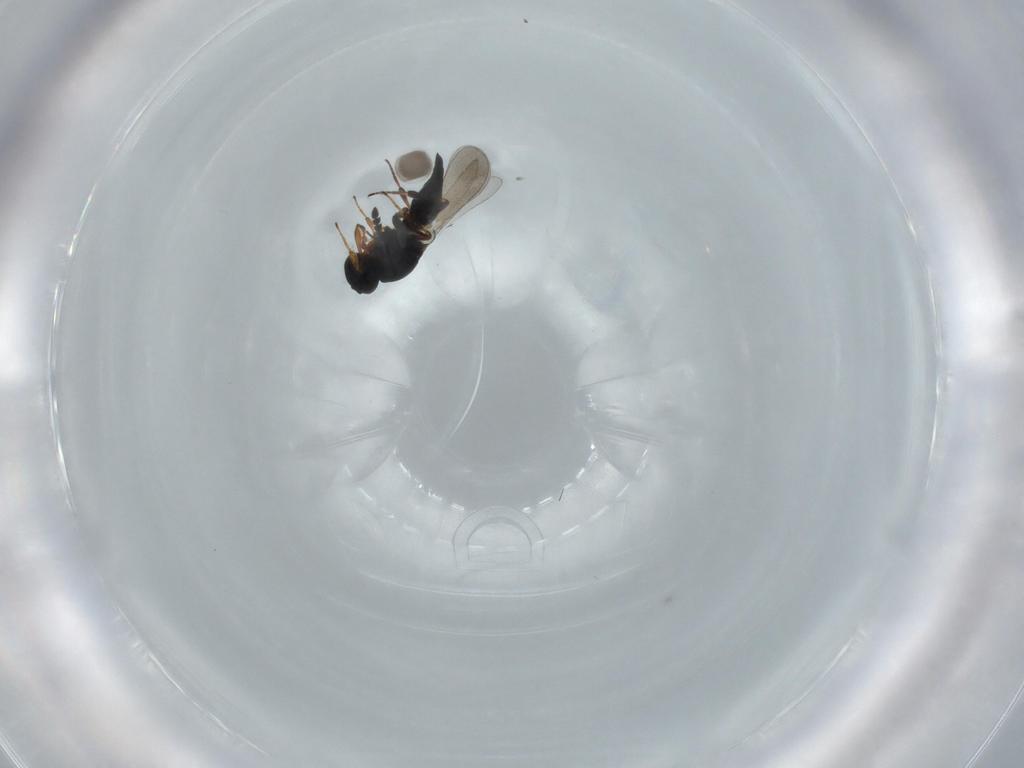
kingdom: Animalia
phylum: Arthropoda
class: Insecta
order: Hymenoptera
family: Platygastridae
